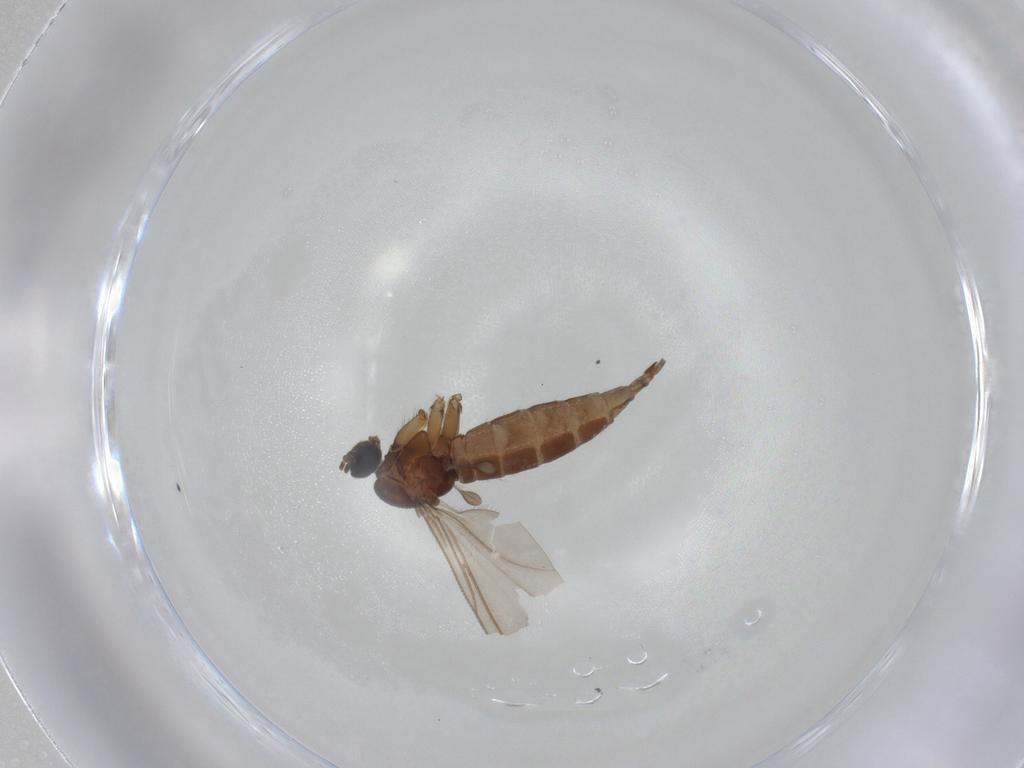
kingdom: Animalia
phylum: Arthropoda
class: Insecta
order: Diptera
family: Sciaridae
